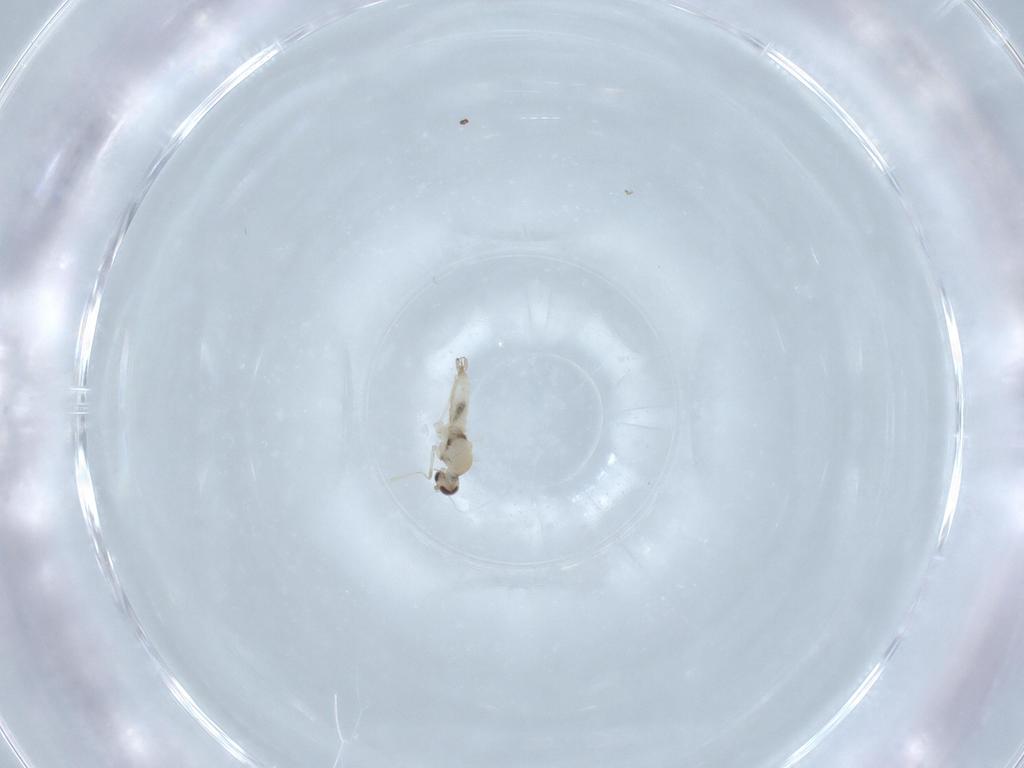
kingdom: Animalia
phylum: Arthropoda
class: Insecta
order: Diptera
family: Cecidomyiidae
